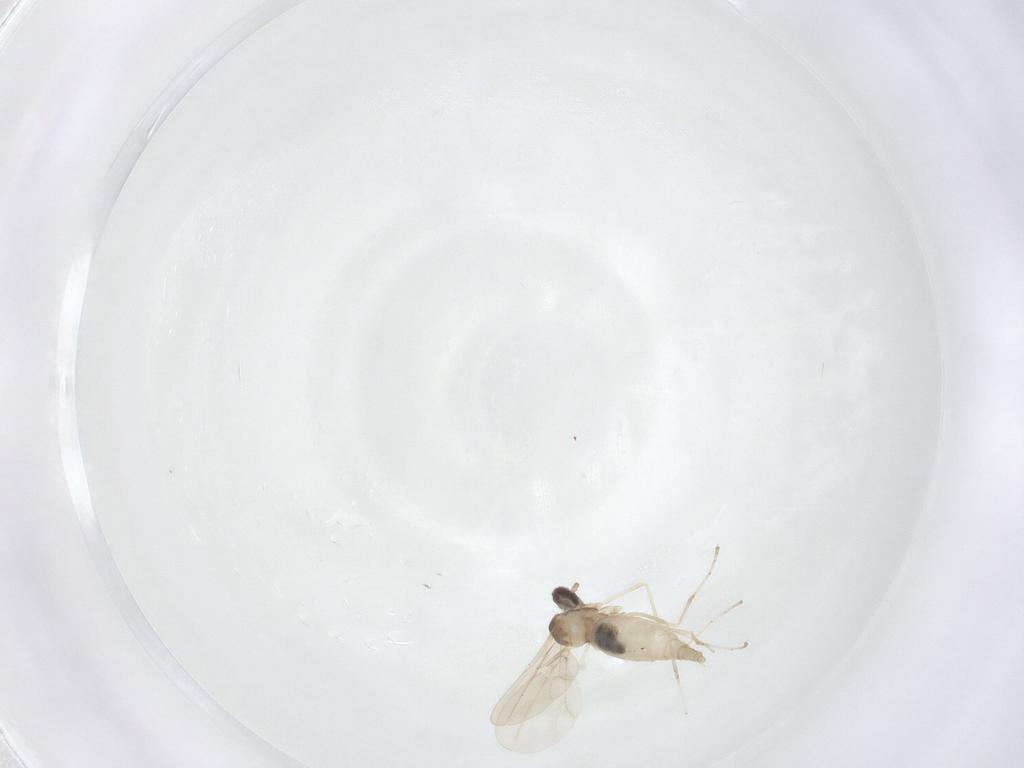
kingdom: Animalia
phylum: Arthropoda
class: Insecta
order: Diptera
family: Cecidomyiidae
